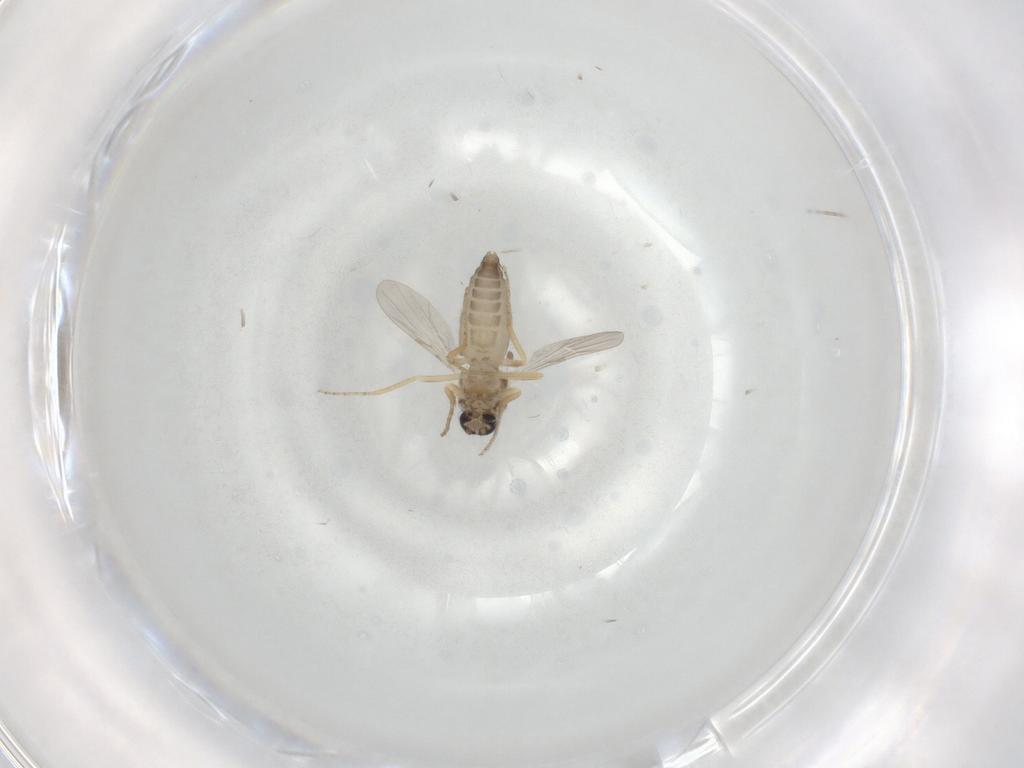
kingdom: Animalia
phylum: Arthropoda
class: Insecta
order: Diptera
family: Ceratopogonidae
